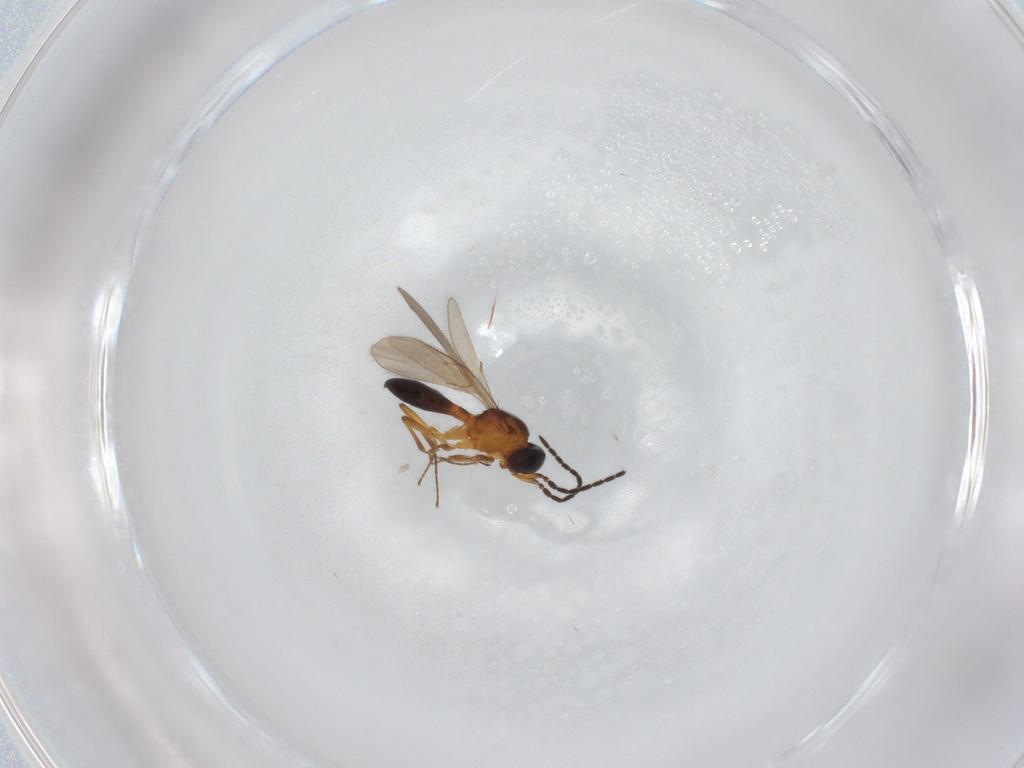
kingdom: Animalia
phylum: Arthropoda
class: Insecta
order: Hymenoptera
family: Scelionidae
